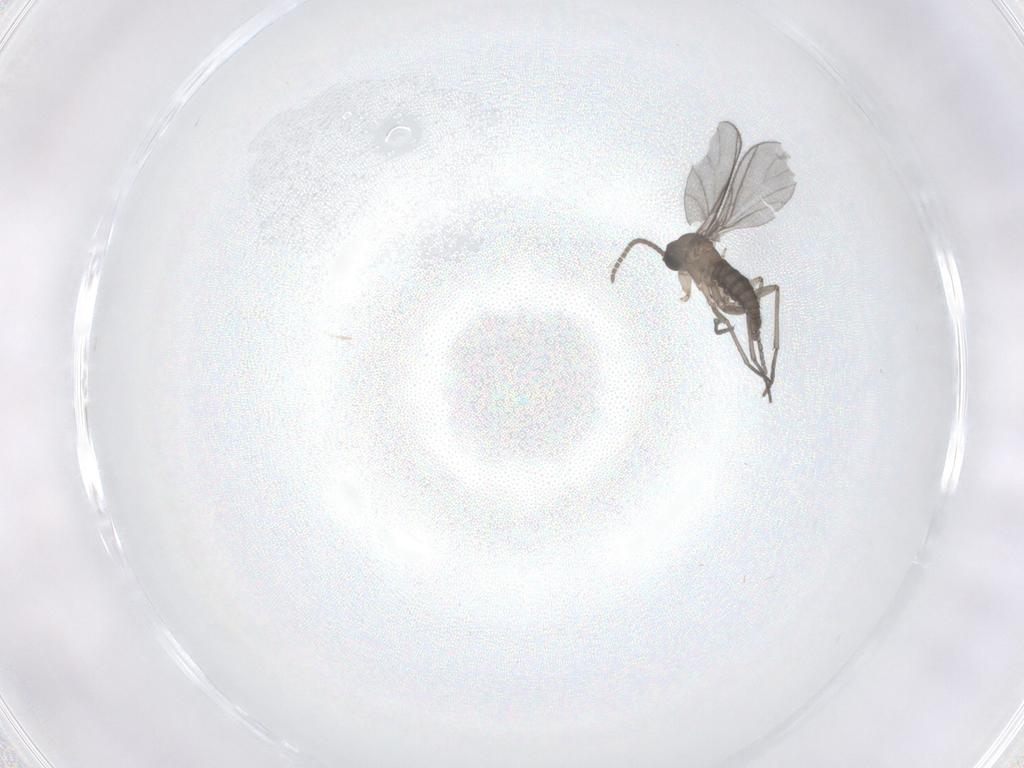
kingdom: Animalia
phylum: Arthropoda
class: Insecta
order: Diptera
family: Sciaridae
